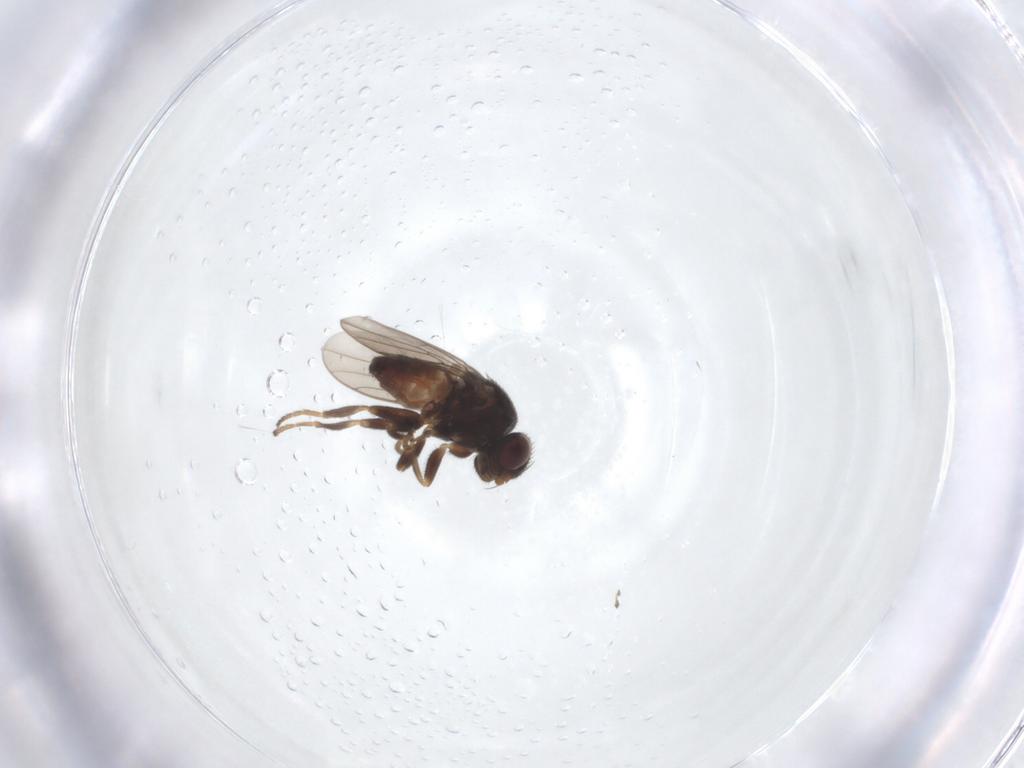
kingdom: Animalia
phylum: Arthropoda
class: Insecta
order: Diptera
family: Chloropidae
